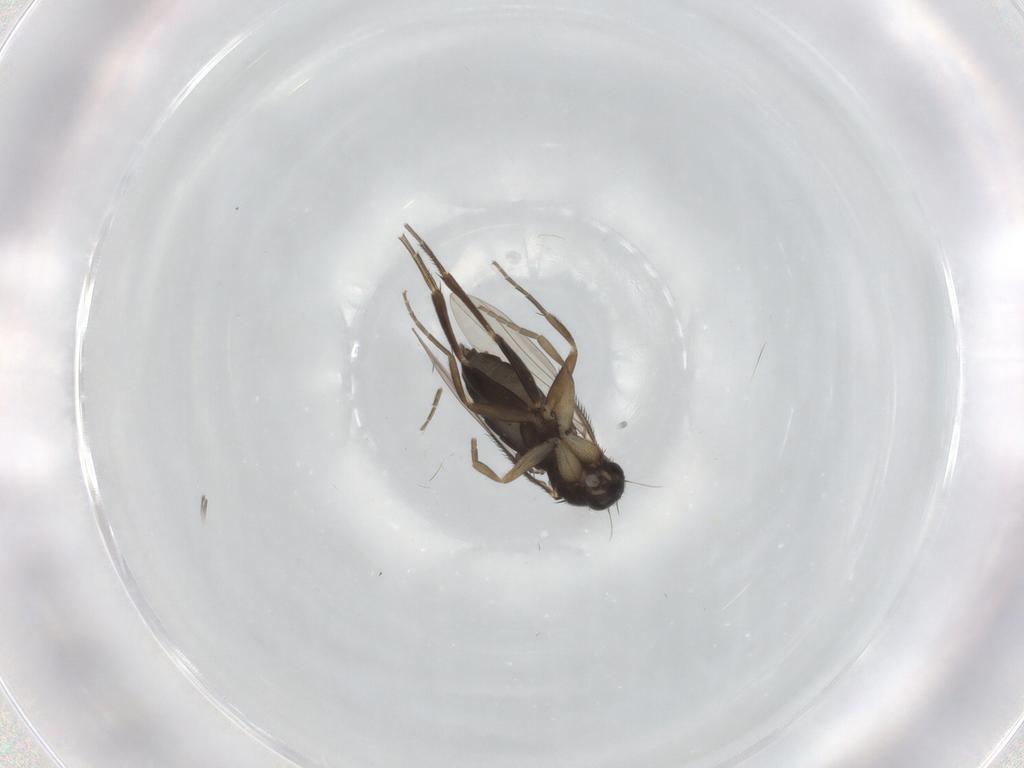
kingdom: Animalia
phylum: Arthropoda
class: Insecta
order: Diptera
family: Phoridae
